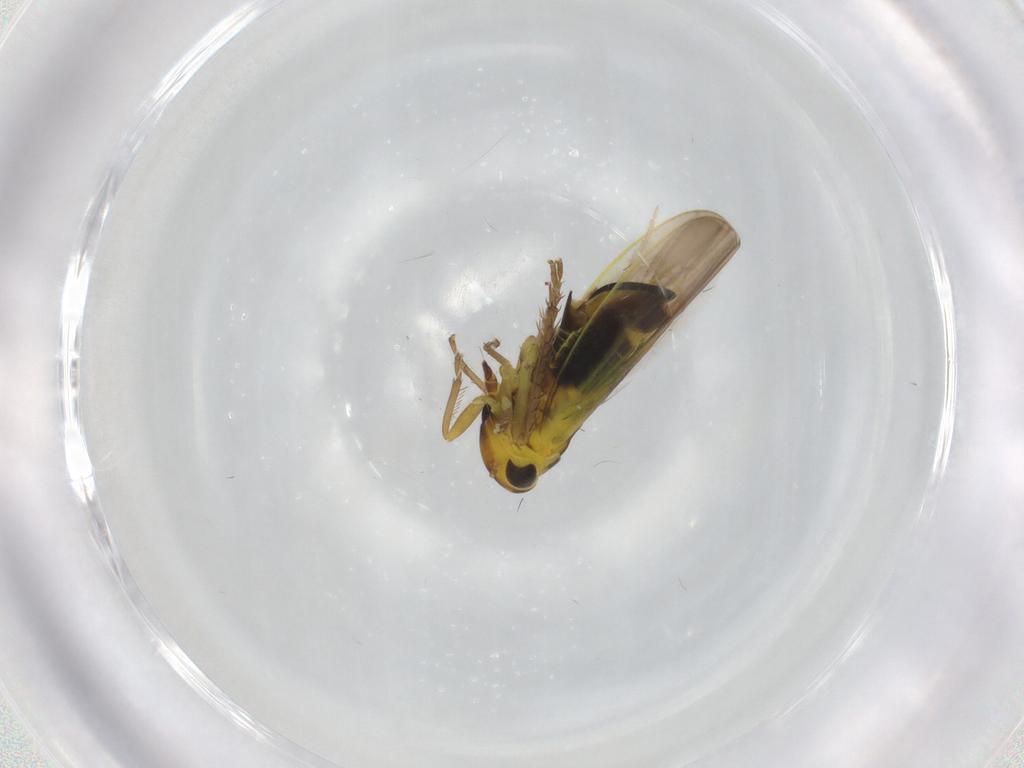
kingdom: Animalia
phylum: Arthropoda
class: Insecta
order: Hemiptera
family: Cicadellidae
